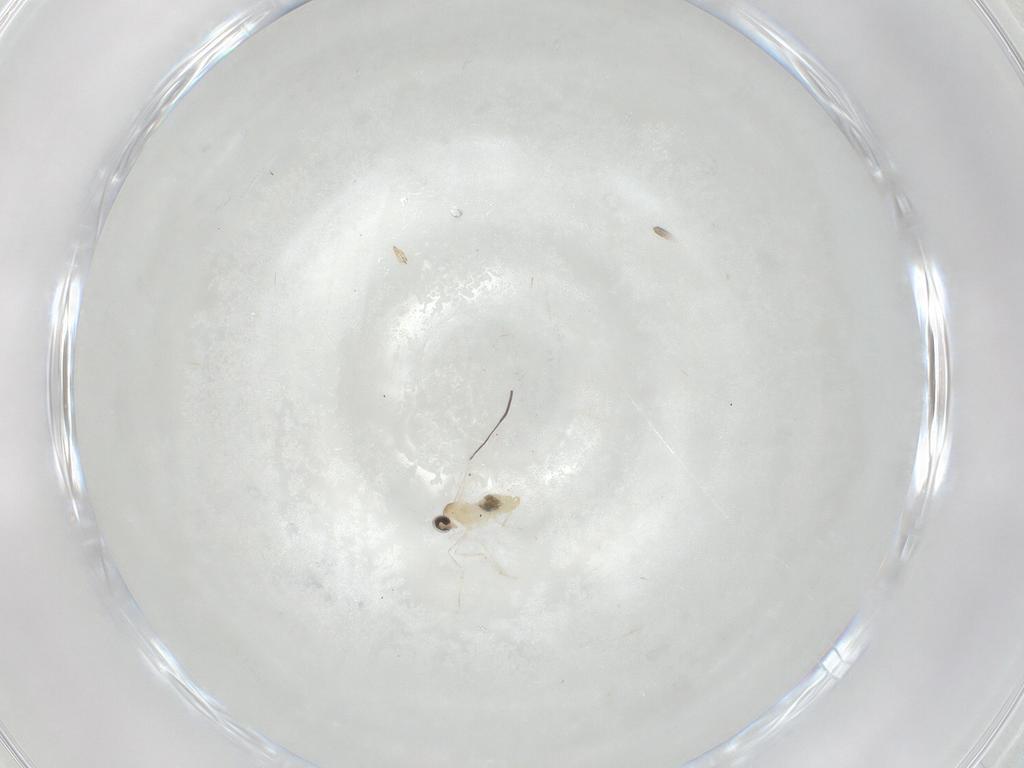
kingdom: Animalia
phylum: Arthropoda
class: Insecta
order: Diptera
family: Cecidomyiidae
